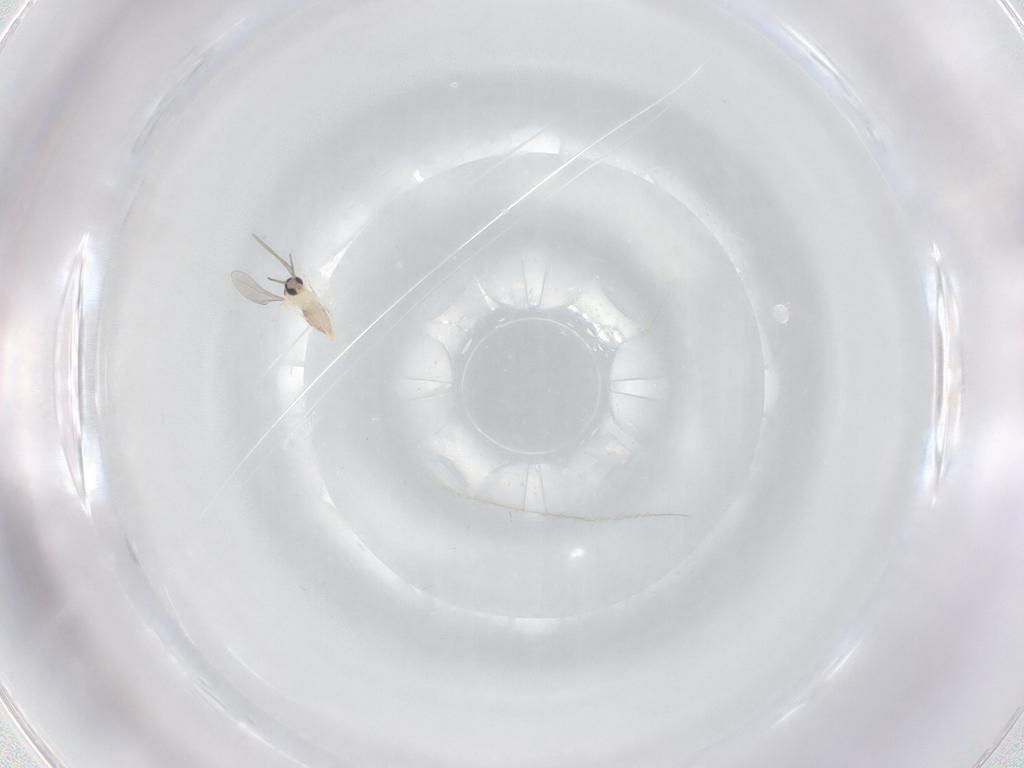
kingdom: Animalia
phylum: Arthropoda
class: Insecta
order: Diptera
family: Cecidomyiidae
